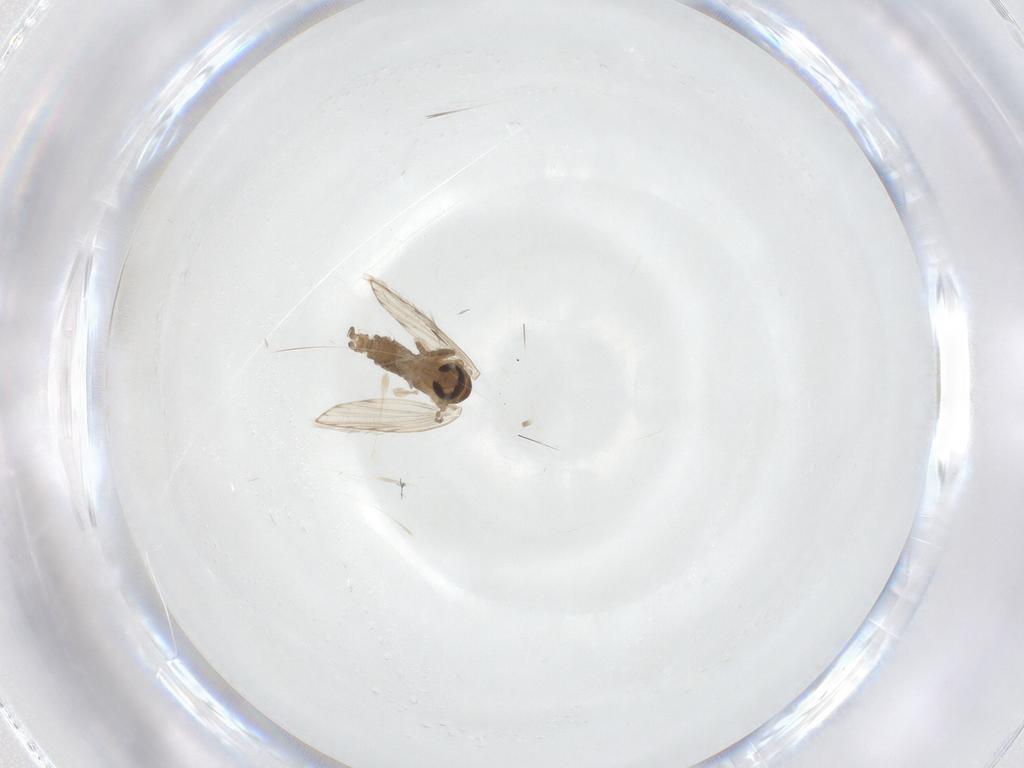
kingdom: Animalia
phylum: Arthropoda
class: Insecta
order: Diptera
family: Psychodidae
